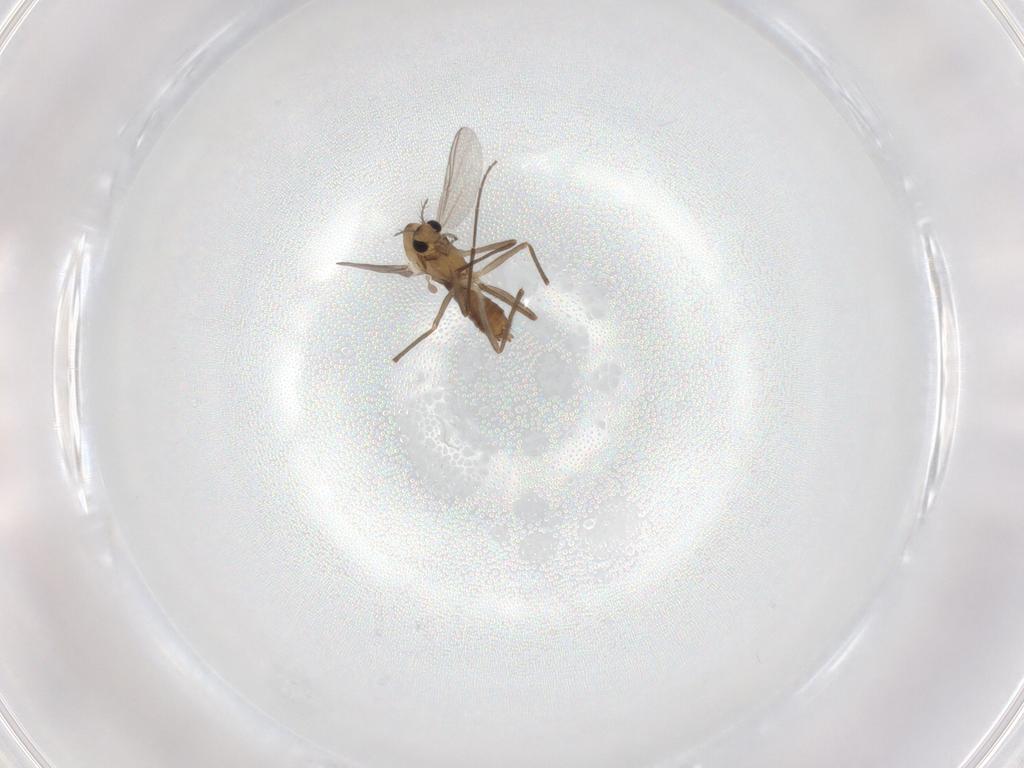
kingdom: Animalia
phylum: Arthropoda
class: Insecta
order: Diptera
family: Chironomidae
